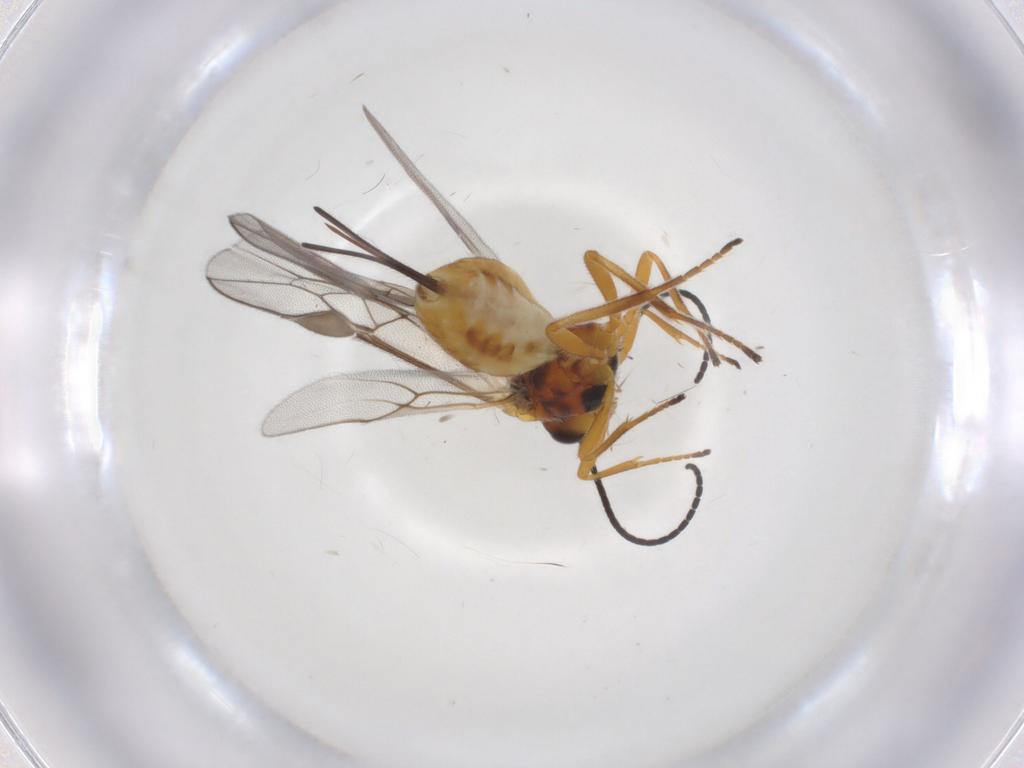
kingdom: Animalia
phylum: Arthropoda
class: Insecta
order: Hymenoptera
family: Braconidae
